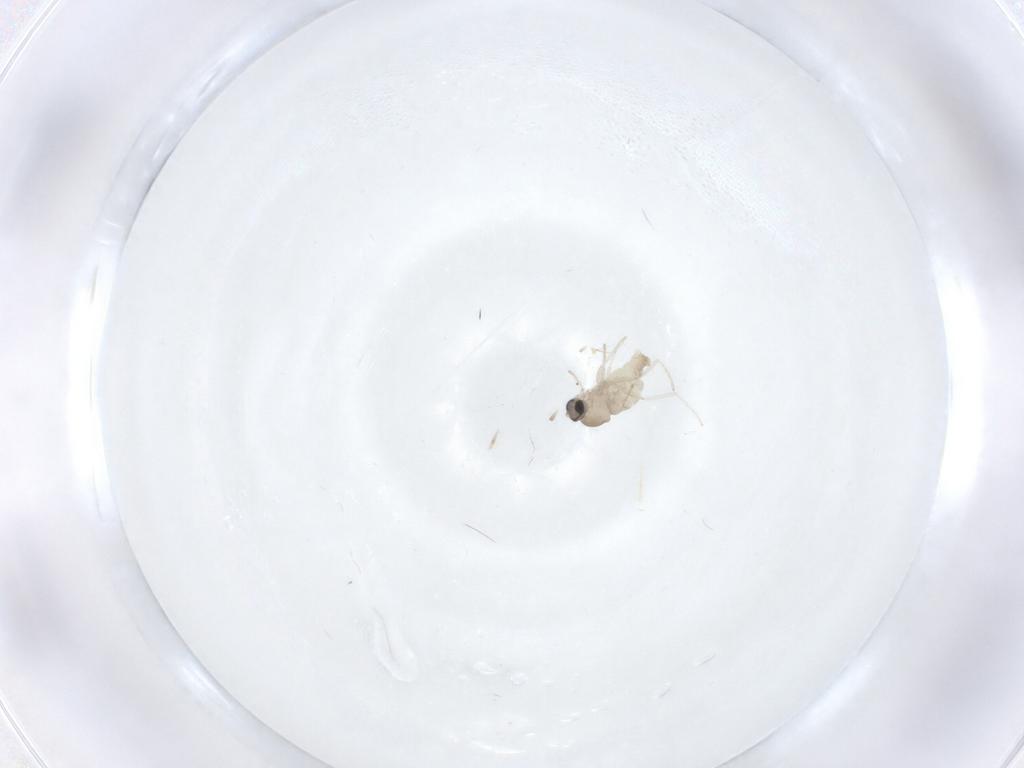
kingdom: Animalia
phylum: Arthropoda
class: Insecta
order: Diptera
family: Cecidomyiidae
